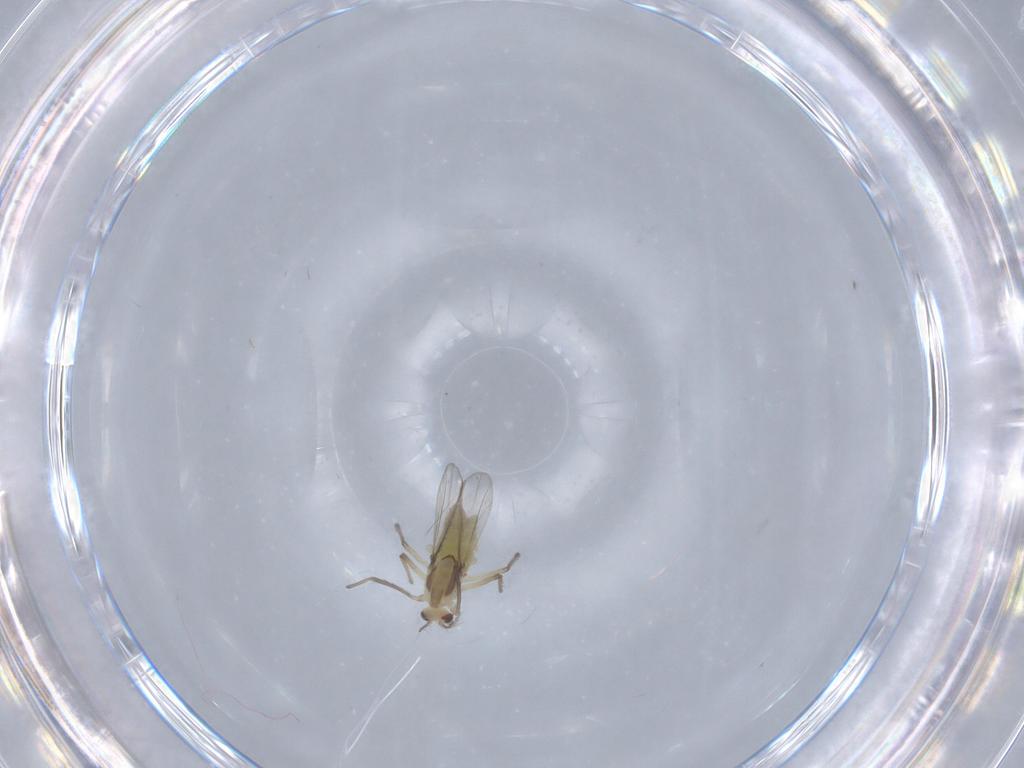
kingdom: Animalia
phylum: Arthropoda
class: Insecta
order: Diptera
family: Chironomidae
